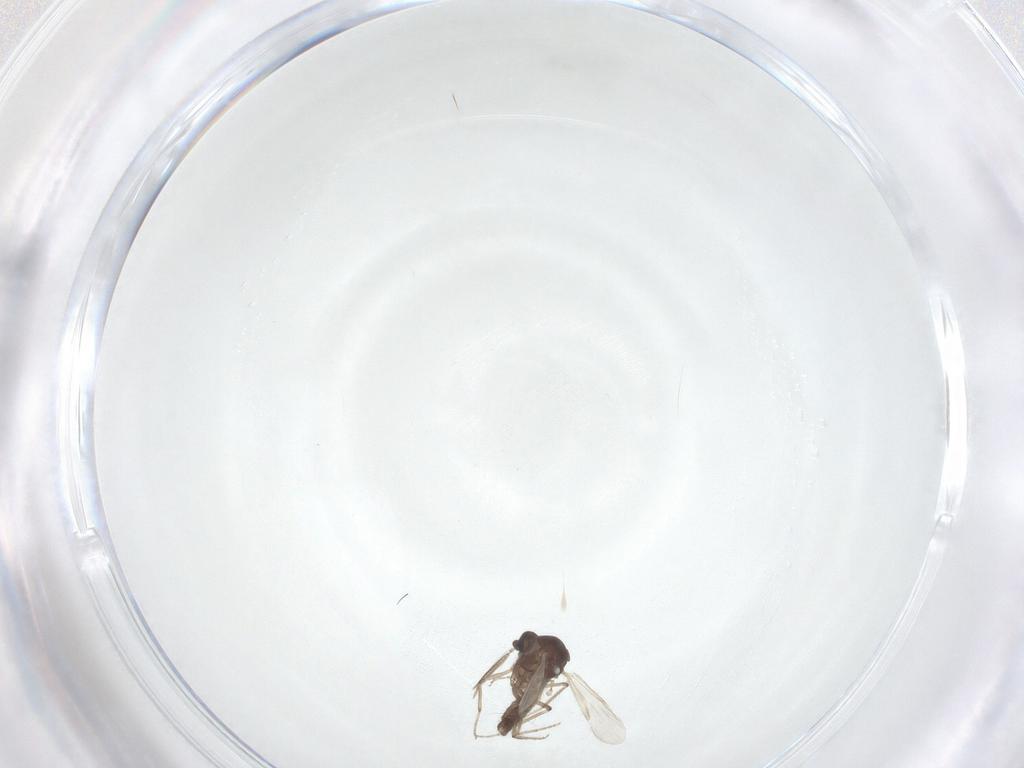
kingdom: Animalia
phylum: Arthropoda
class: Insecta
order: Diptera
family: Ceratopogonidae
